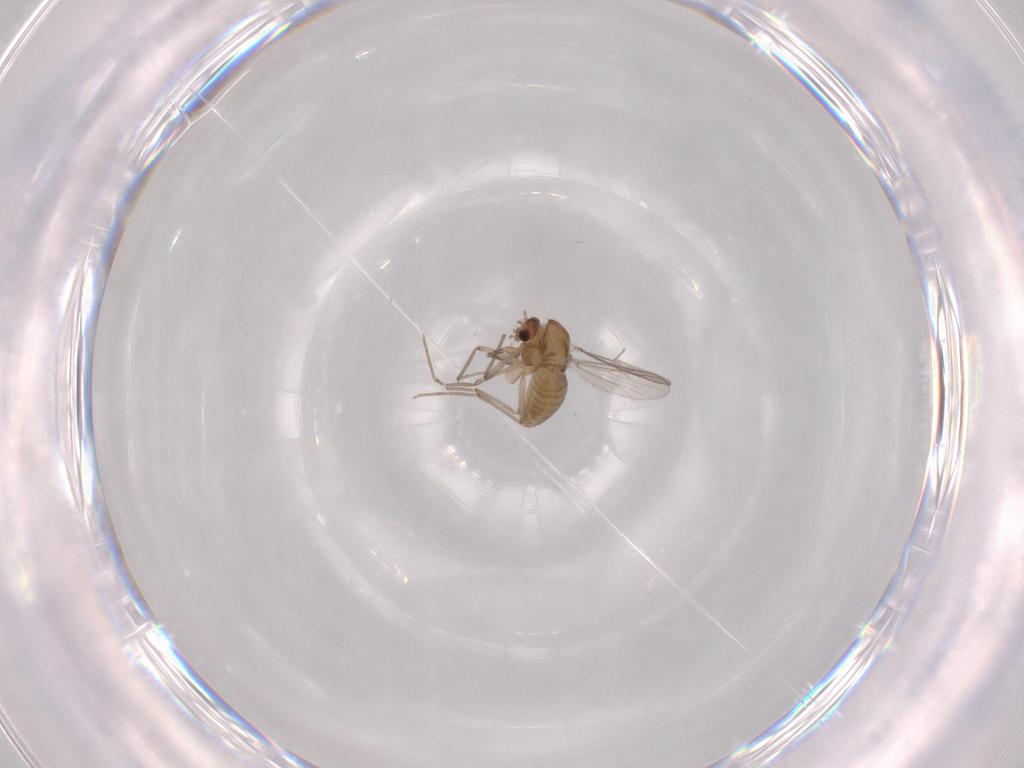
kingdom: Animalia
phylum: Arthropoda
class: Insecta
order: Diptera
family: Chironomidae
